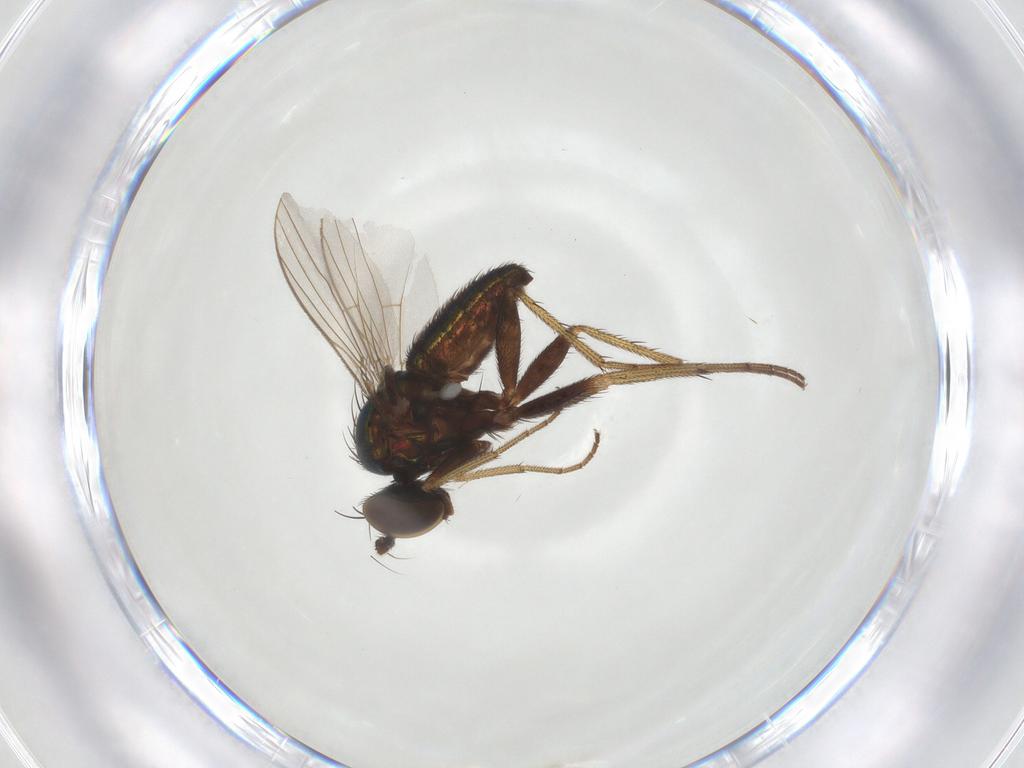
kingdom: Animalia
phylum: Arthropoda
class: Insecta
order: Diptera
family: Dolichopodidae
